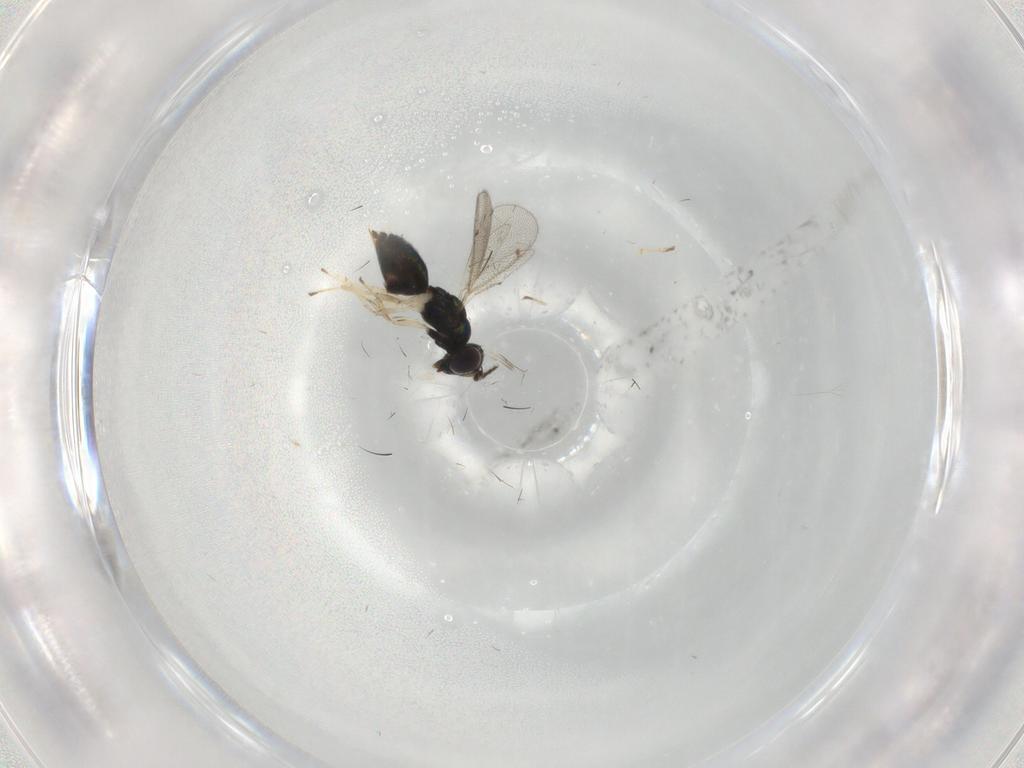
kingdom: Animalia
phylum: Arthropoda
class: Insecta
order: Hymenoptera
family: Eulophidae
